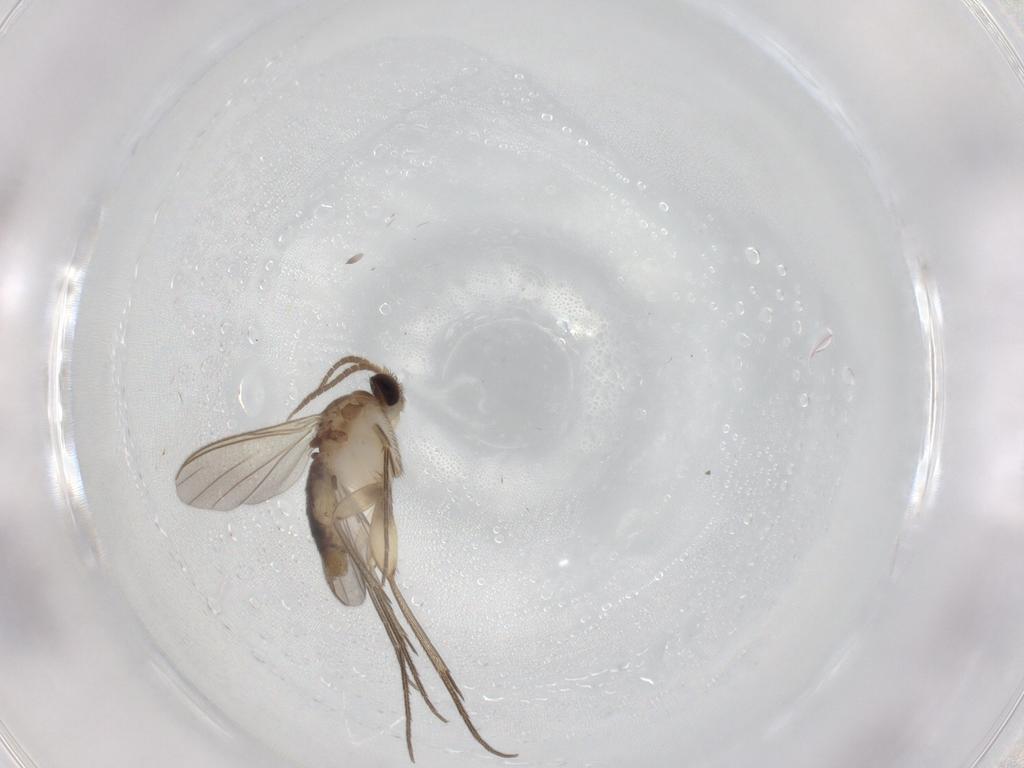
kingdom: Animalia
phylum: Arthropoda
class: Insecta
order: Diptera
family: Mycetophilidae
